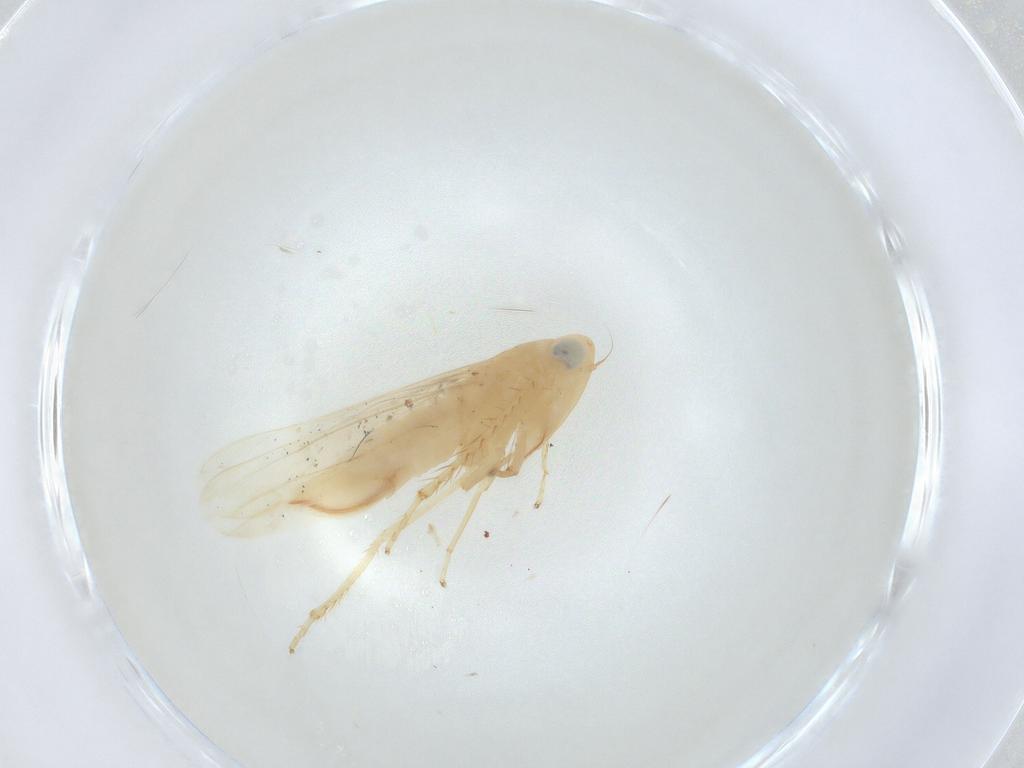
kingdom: Animalia
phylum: Arthropoda
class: Insecta
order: Hemiptera
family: Cicadellidae
